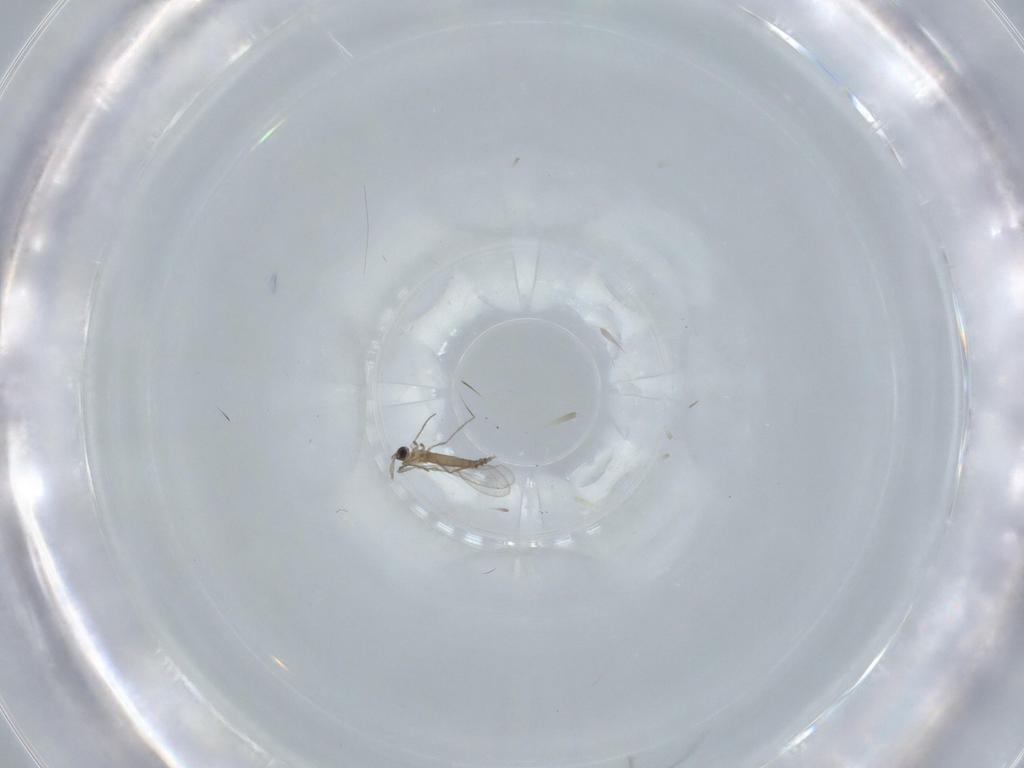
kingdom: Animalia
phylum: Arthropoda
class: Insecta
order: Diptera
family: Cecidomyiidae
